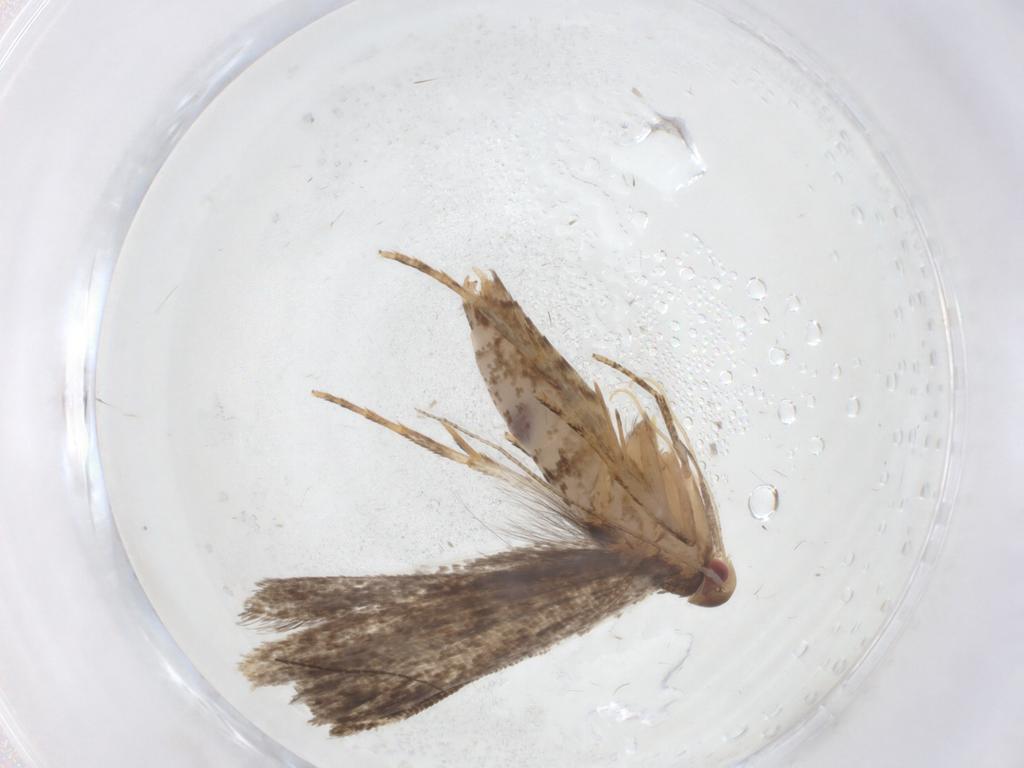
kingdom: Animalia
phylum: Arthropoda
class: Insecta
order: Lepidoptera
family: Gelechiidae
